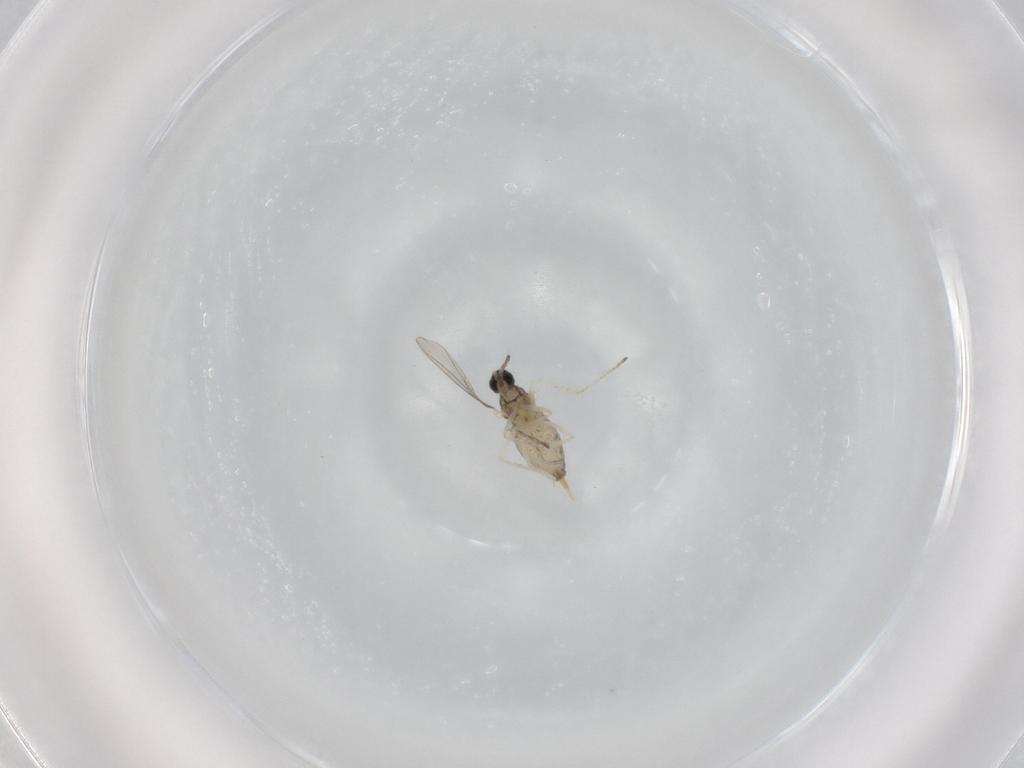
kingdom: Animalia
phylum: Arthropoda
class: Insecta
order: Diptera
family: Cecidomyiidae
